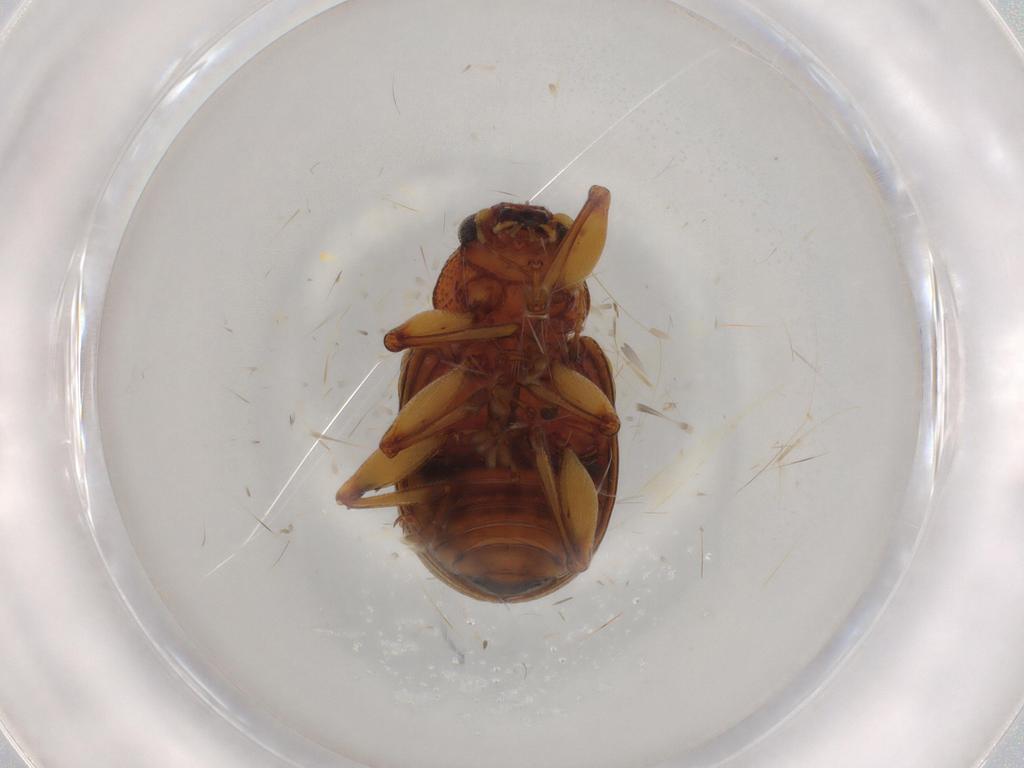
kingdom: Animalia
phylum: Arthropoda
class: Insecta
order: Coleoptera
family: Chrysomelidae
